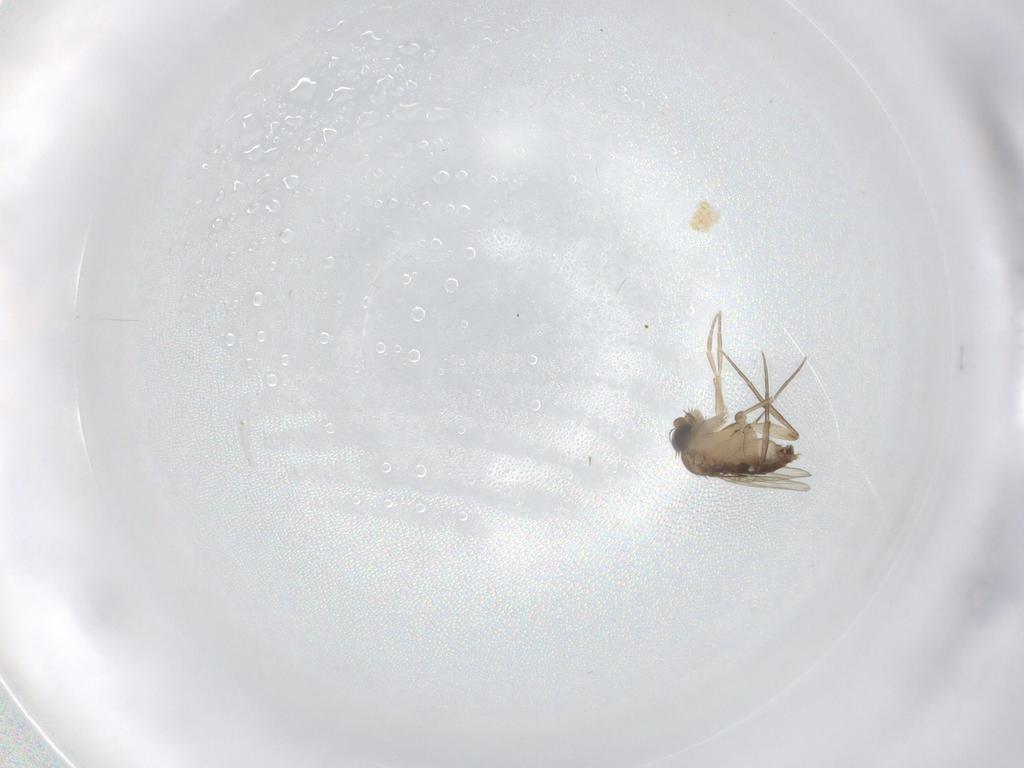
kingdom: Animalia
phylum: Arthropoda
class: Insecta
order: Diptera
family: Phoridae
